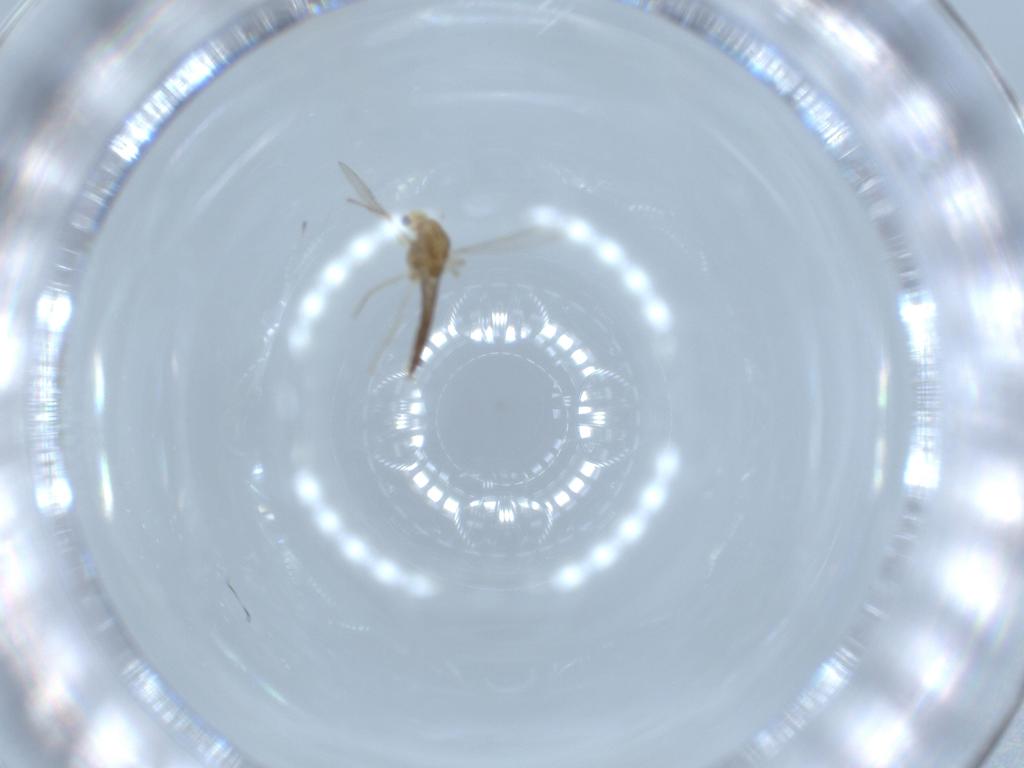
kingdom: Animalia
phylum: Arthropoda
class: Insecta
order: Diptera
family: Chironomidae
